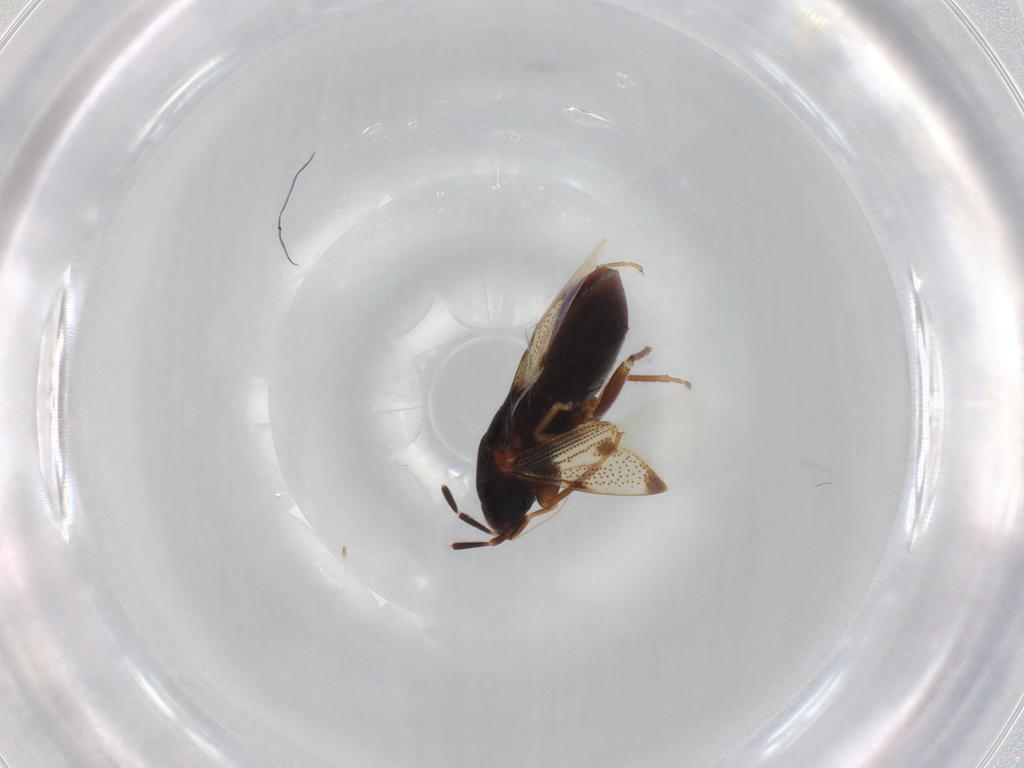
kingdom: Animalia
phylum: Arthropoda
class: Insecta
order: Hemiptera
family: Rhyparochromidae
